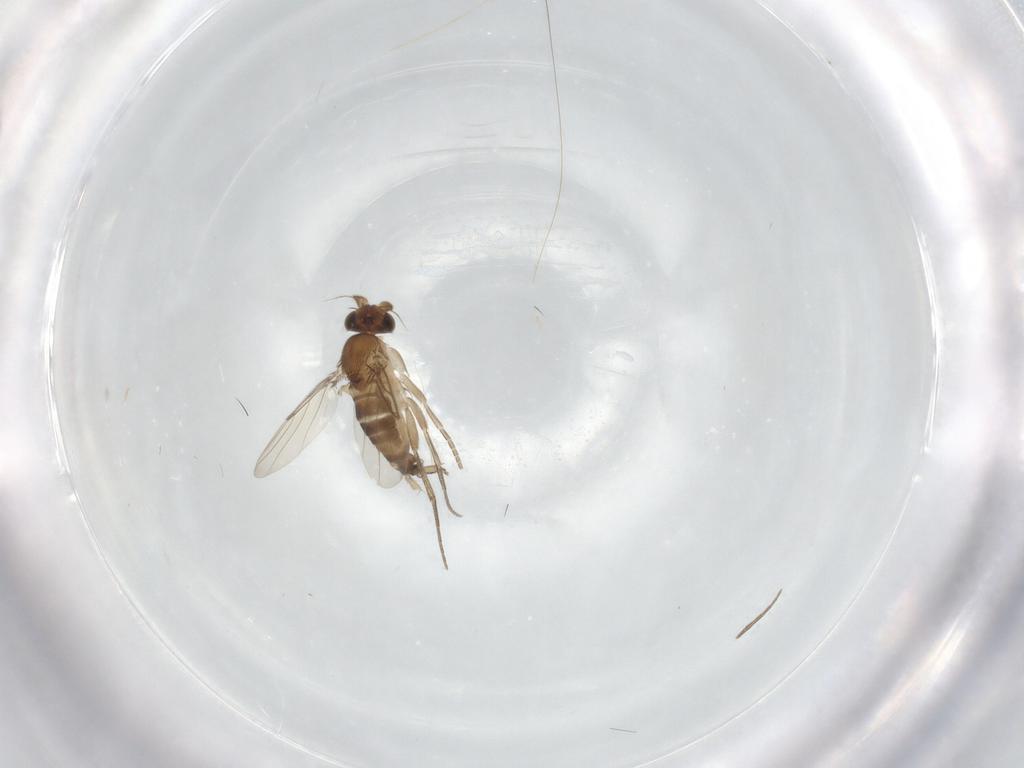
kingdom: Animalia
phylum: Arthropoda
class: Insecta
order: Diptera
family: Phoridae
